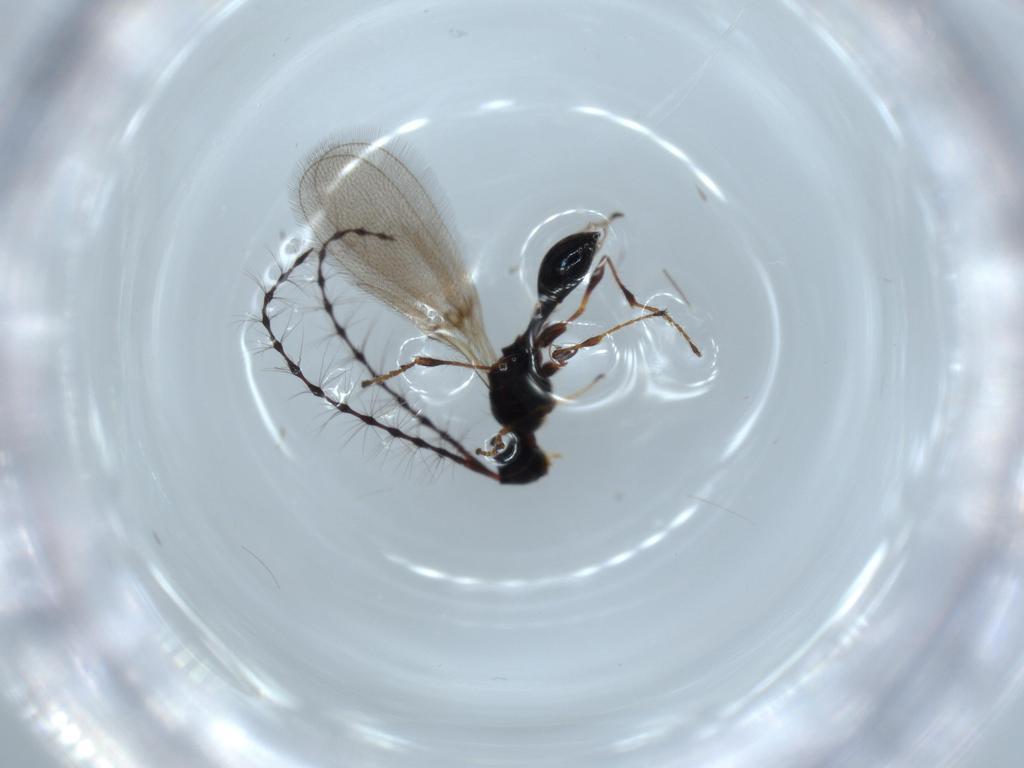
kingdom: Animalia
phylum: Arthropoda
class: Insecta
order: Hymenoptera
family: Diapriidae
